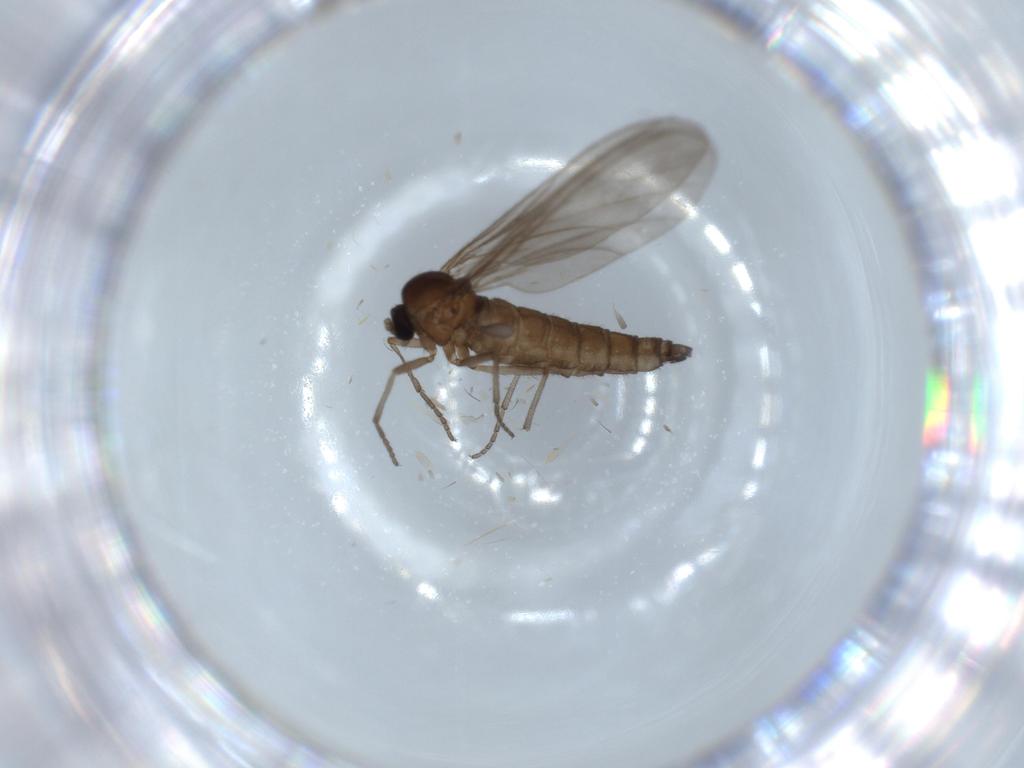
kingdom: Animalia
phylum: Arthropoda
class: Insecta
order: Diptera
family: Sciaridae
